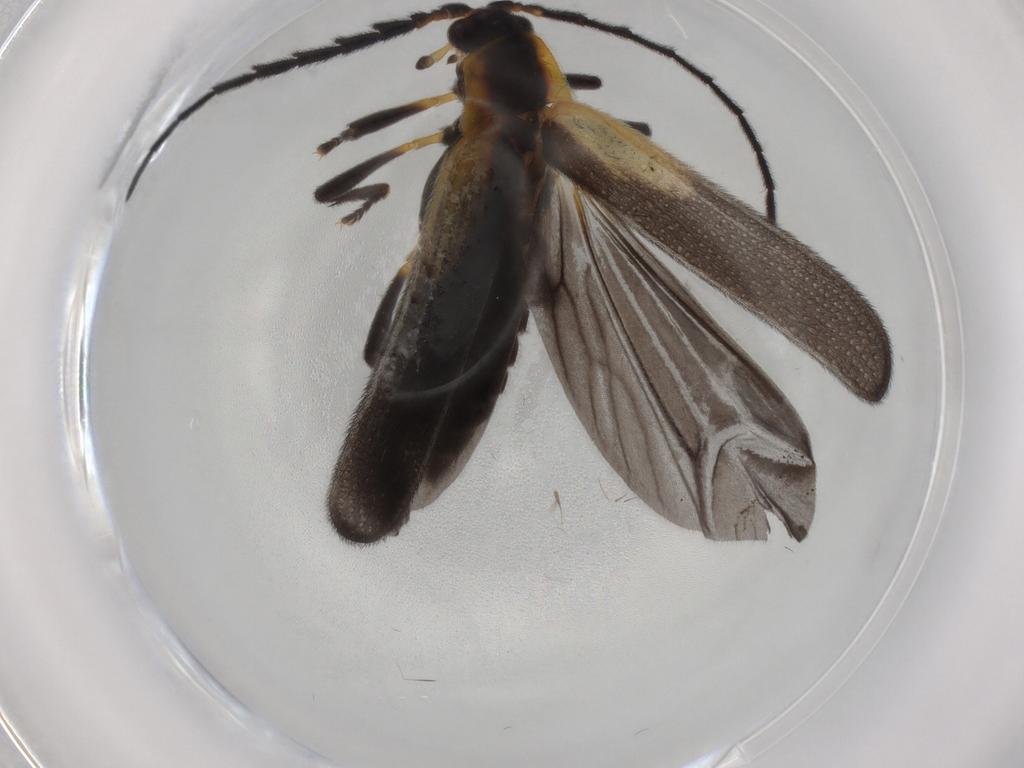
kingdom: Animalia
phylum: Arthropoda
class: Insecta
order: Coleoptera
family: Lycidae
